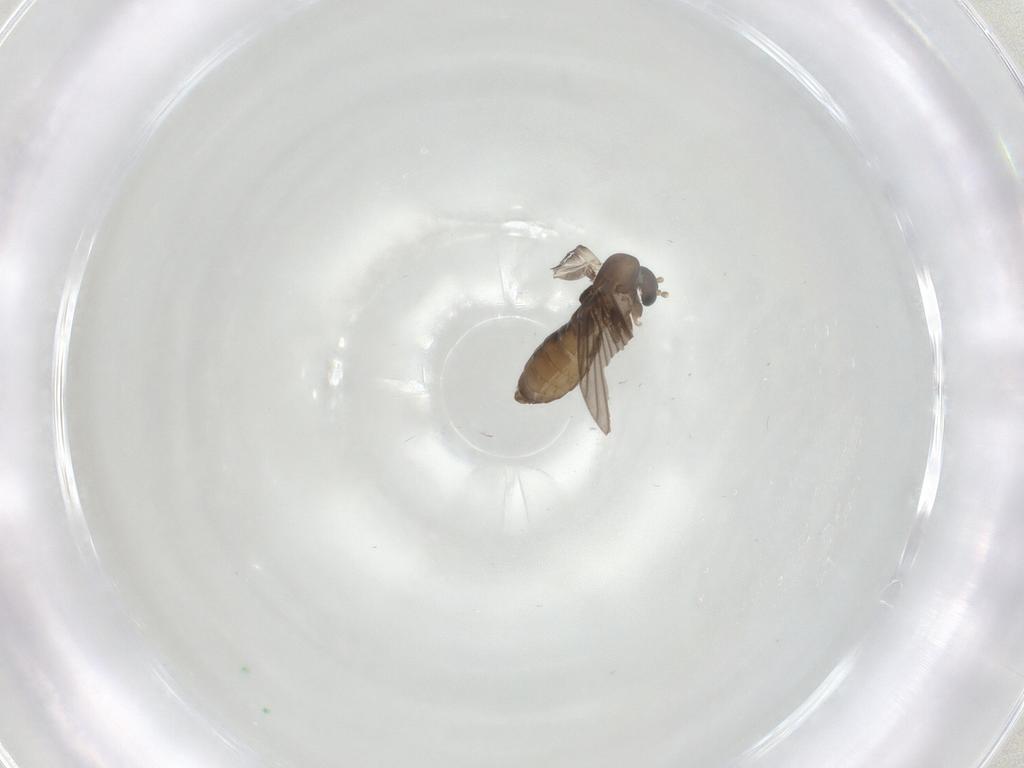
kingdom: Animalia
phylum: Arthropoda
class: Insecta
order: Diptera
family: Psychodidae
